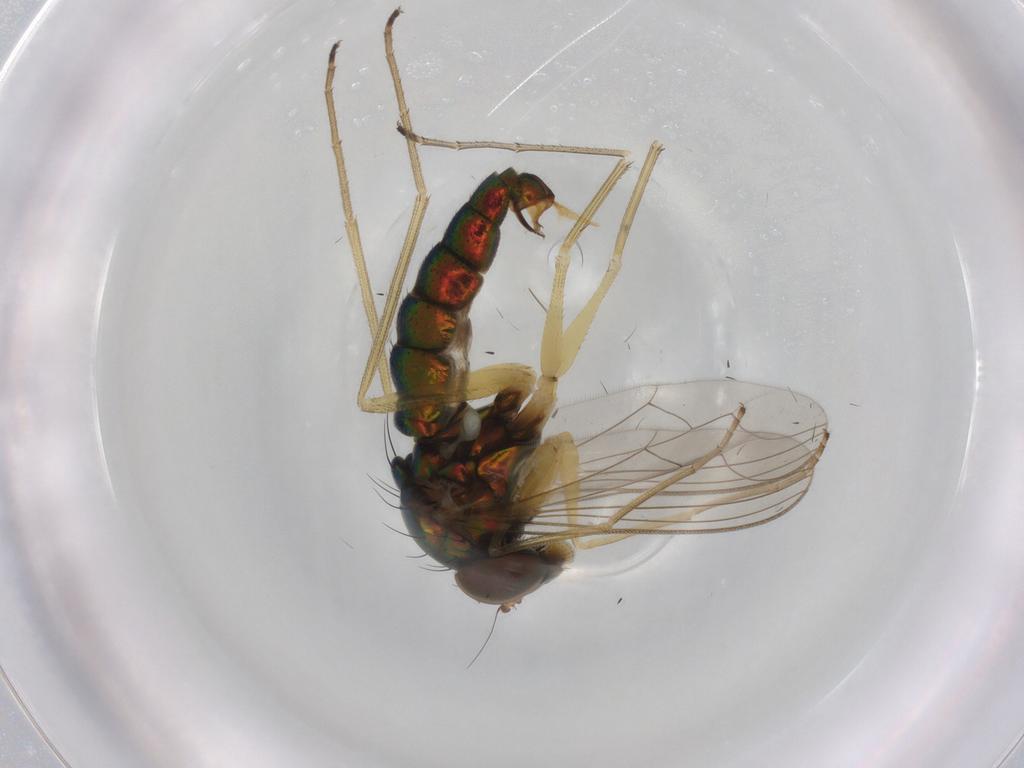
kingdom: Animalia
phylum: Arthropoda
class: Insecta
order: Diptera
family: Dolichopodidae
